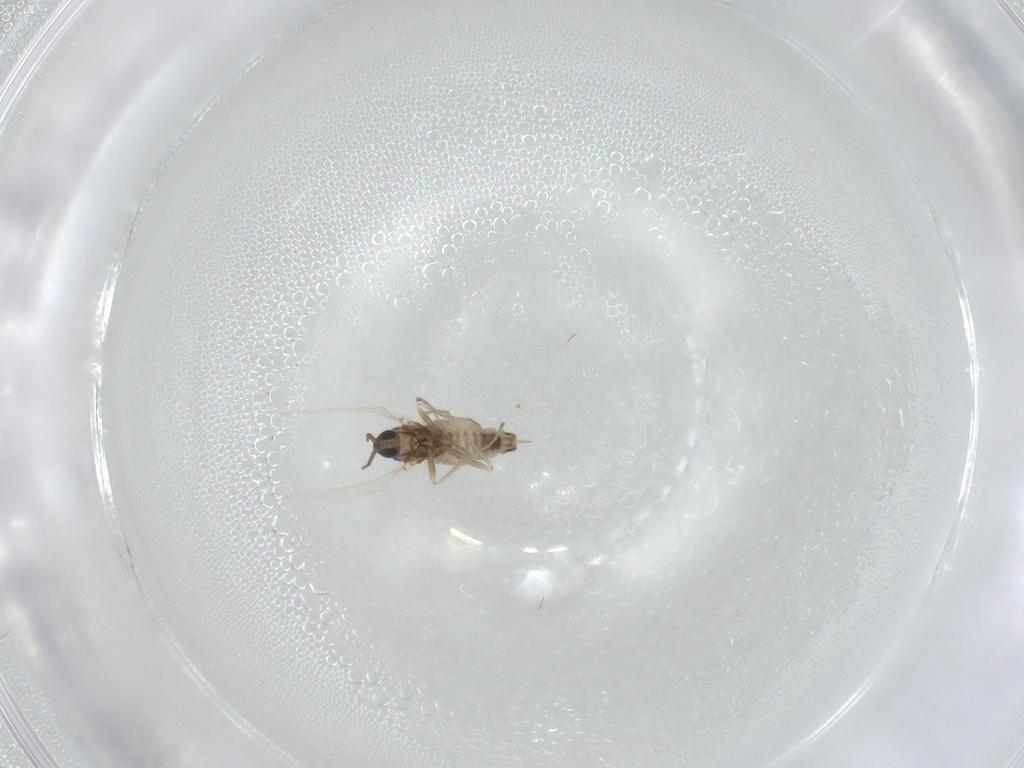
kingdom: Animalia
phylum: Arthropoda
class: Insecta
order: Diptera
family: Cecidomyiidae
